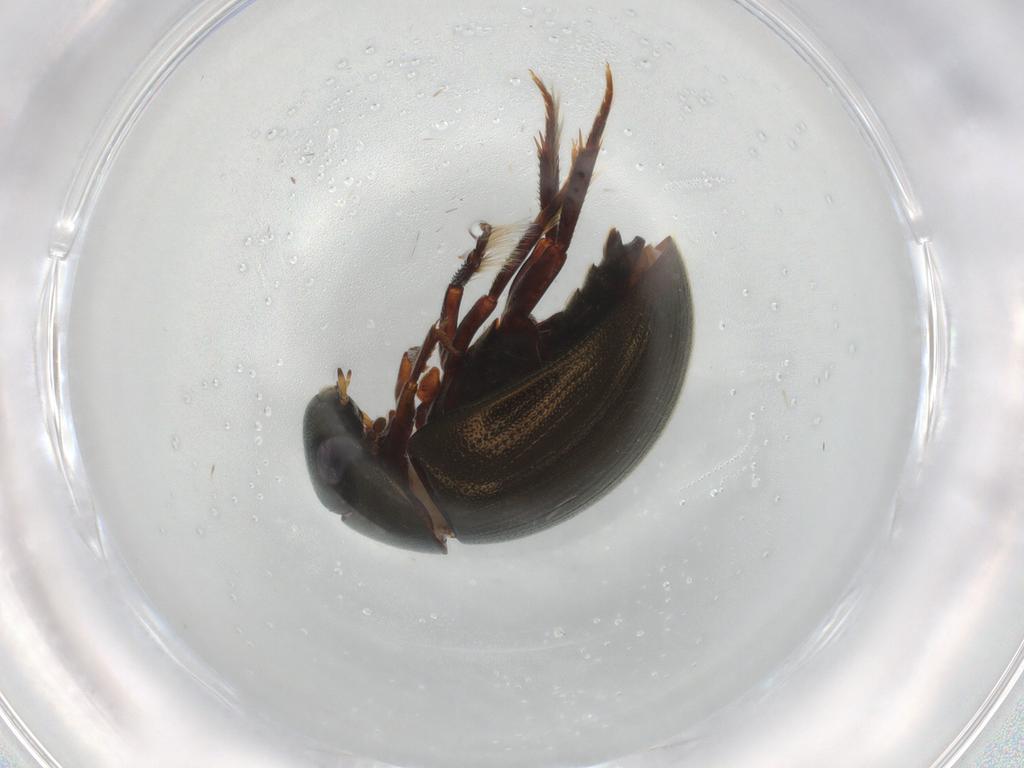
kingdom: Animalia
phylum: Arthropoda
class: Insecta
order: Coleoptera
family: Hydrophilidae
